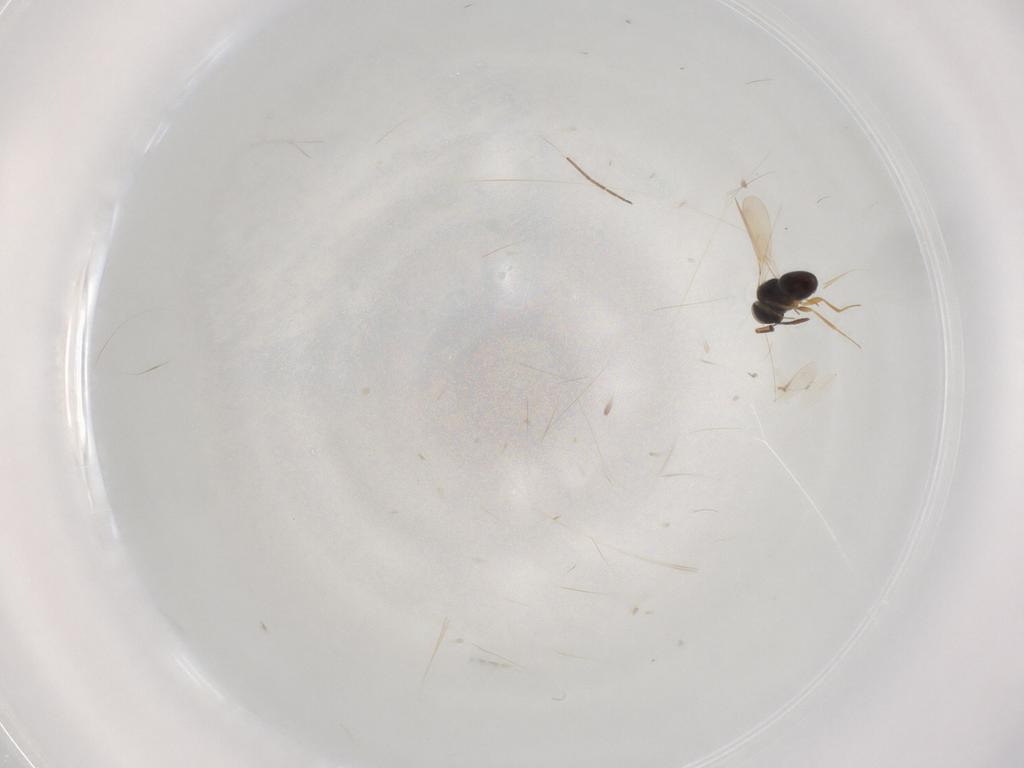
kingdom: Animalia
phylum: Arthropoda
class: Insecta
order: Hymenoptera
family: Scelionidae
